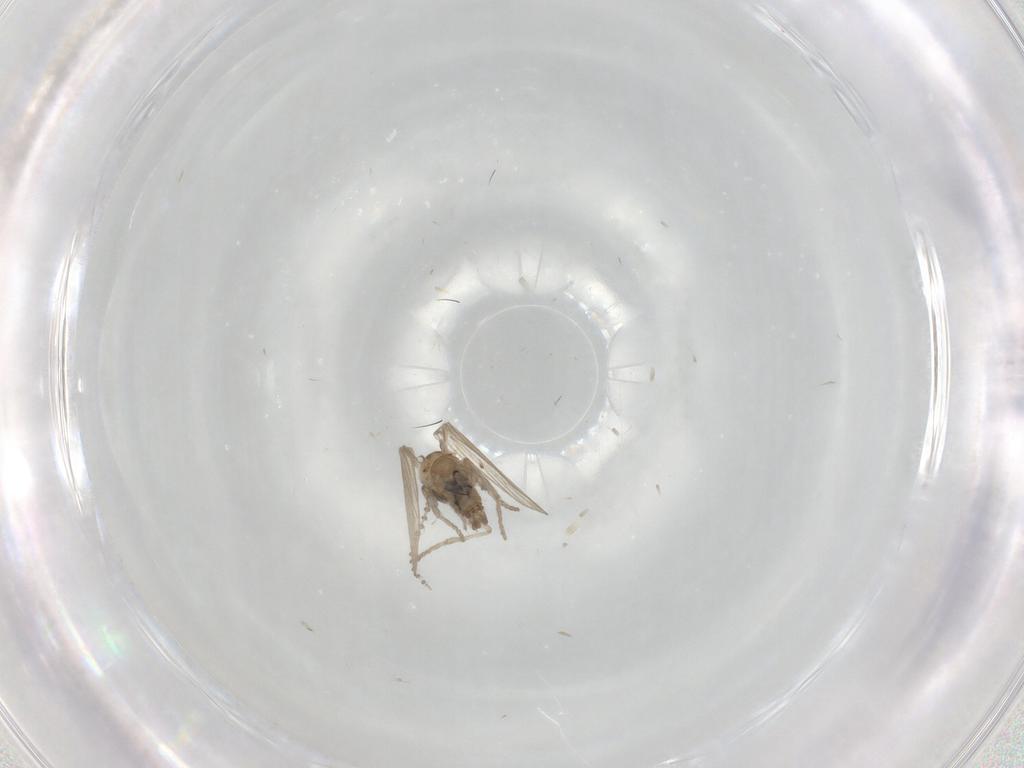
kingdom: Animalia
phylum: Arthropoda
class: Insecta
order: Diptera
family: Psychodidae
